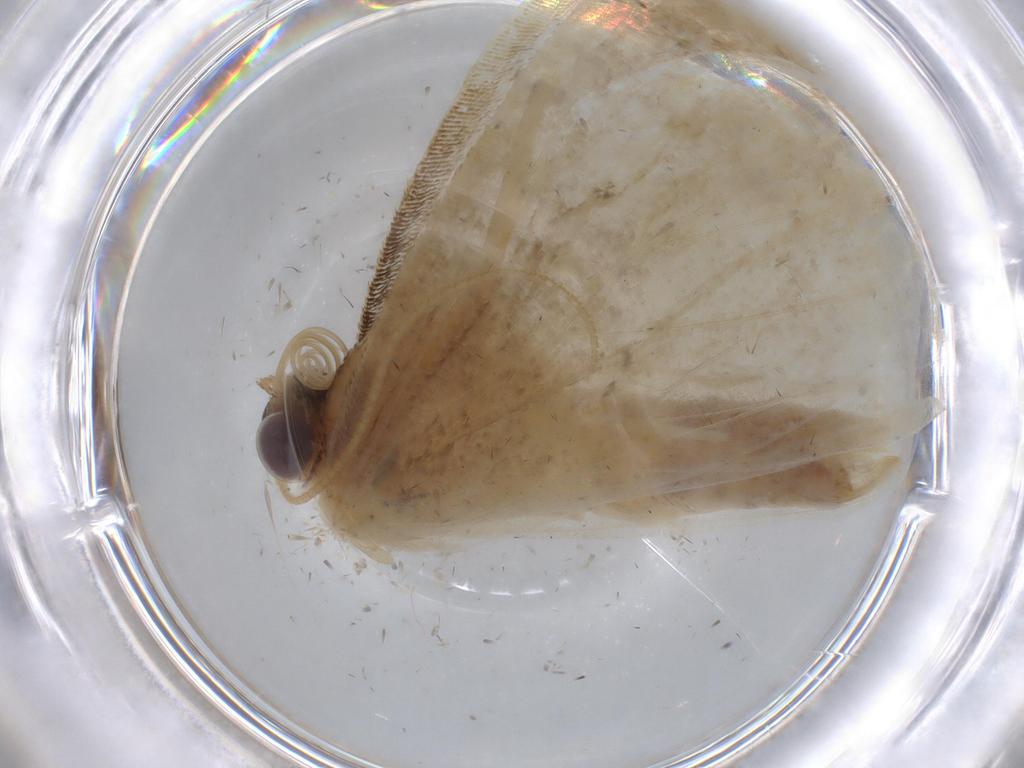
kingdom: Animalia
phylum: Arthropoda
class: Insecta
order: Lepidoptera
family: Geometridae
